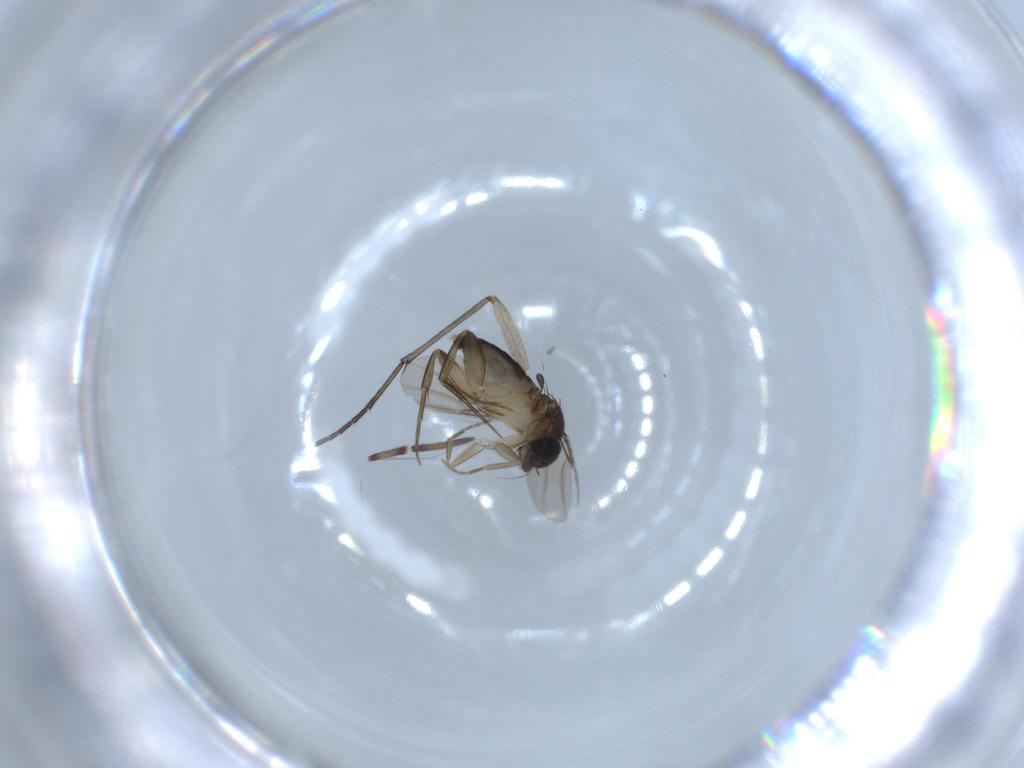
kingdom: Animalia
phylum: Arthropoda
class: Insecta
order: Diptera
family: Phoridae
